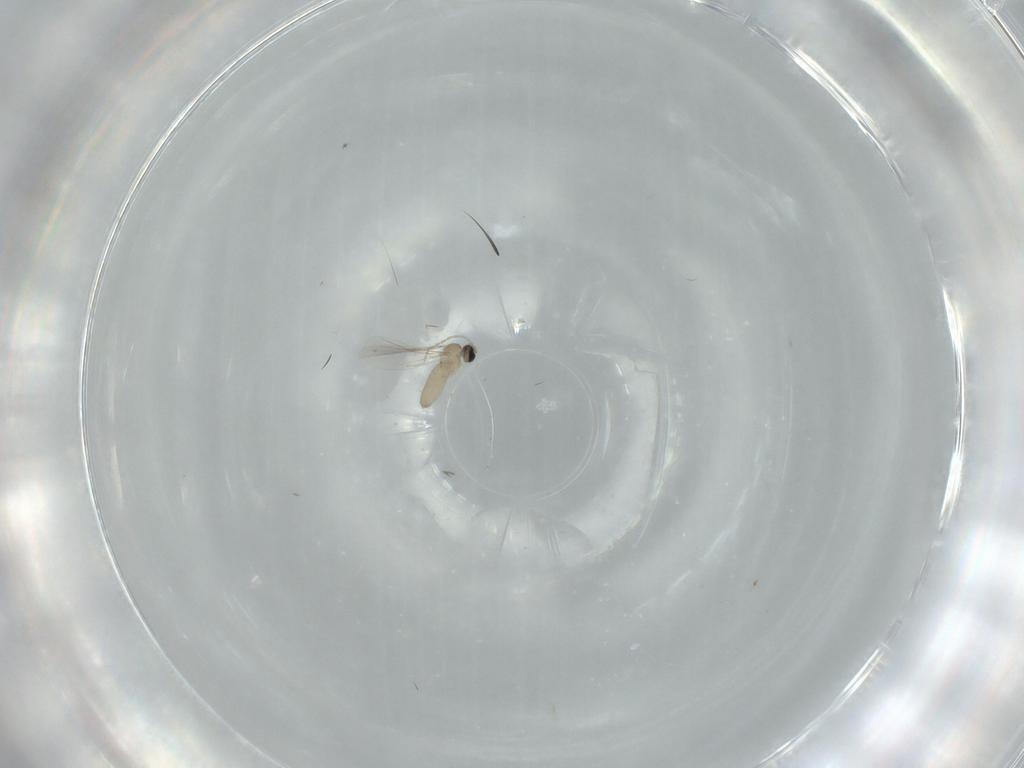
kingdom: Animalia
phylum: Arthropoda
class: Insecta
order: Diptera
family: Cecidomyiidae
